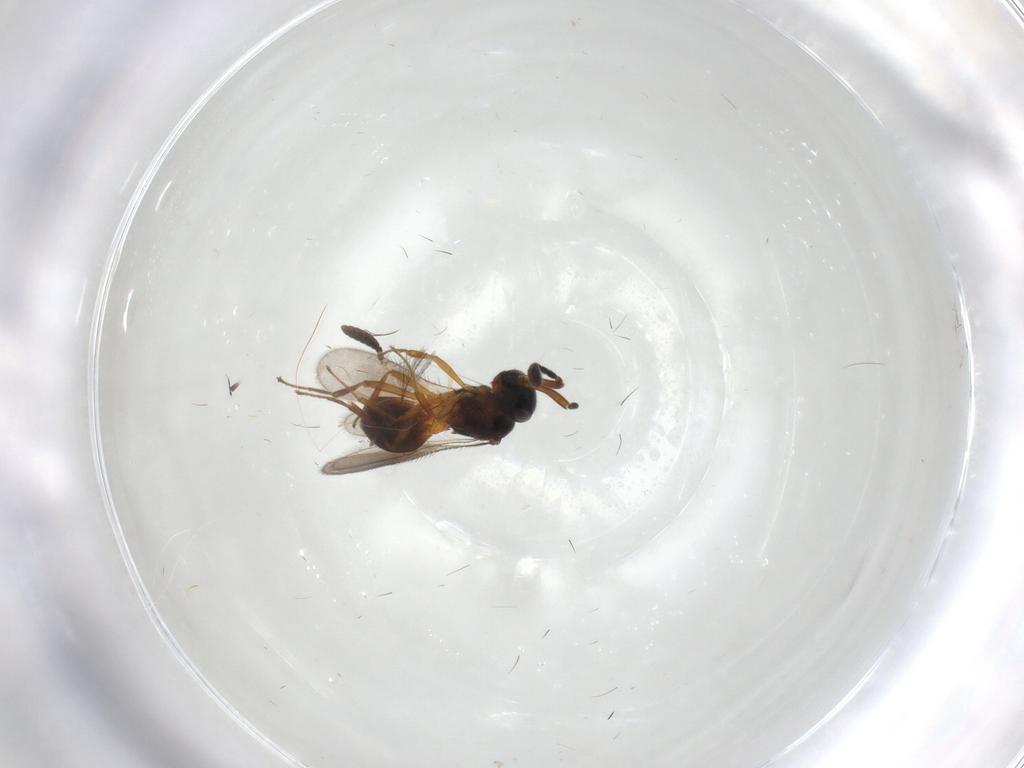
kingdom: Animalia
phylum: Arthropoda
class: Insecta
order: Hymenoptera
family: Scelionidae
